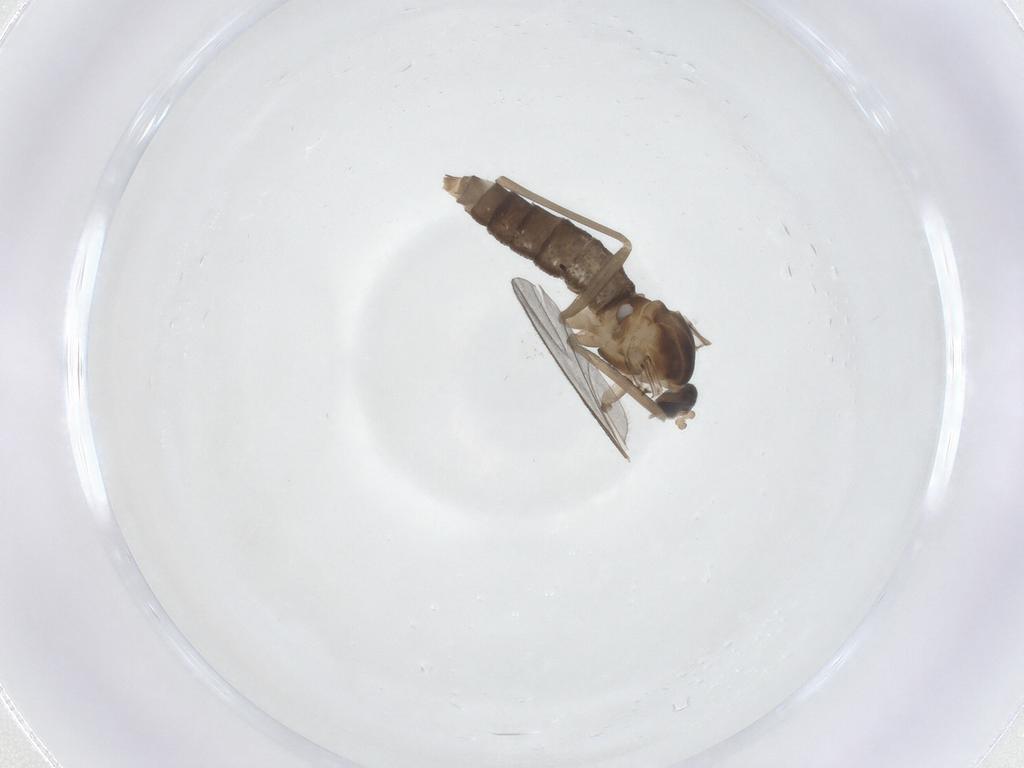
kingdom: Animalia
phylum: Arthropoda
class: Insecta
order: Diptera
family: Cecidomyiidae
